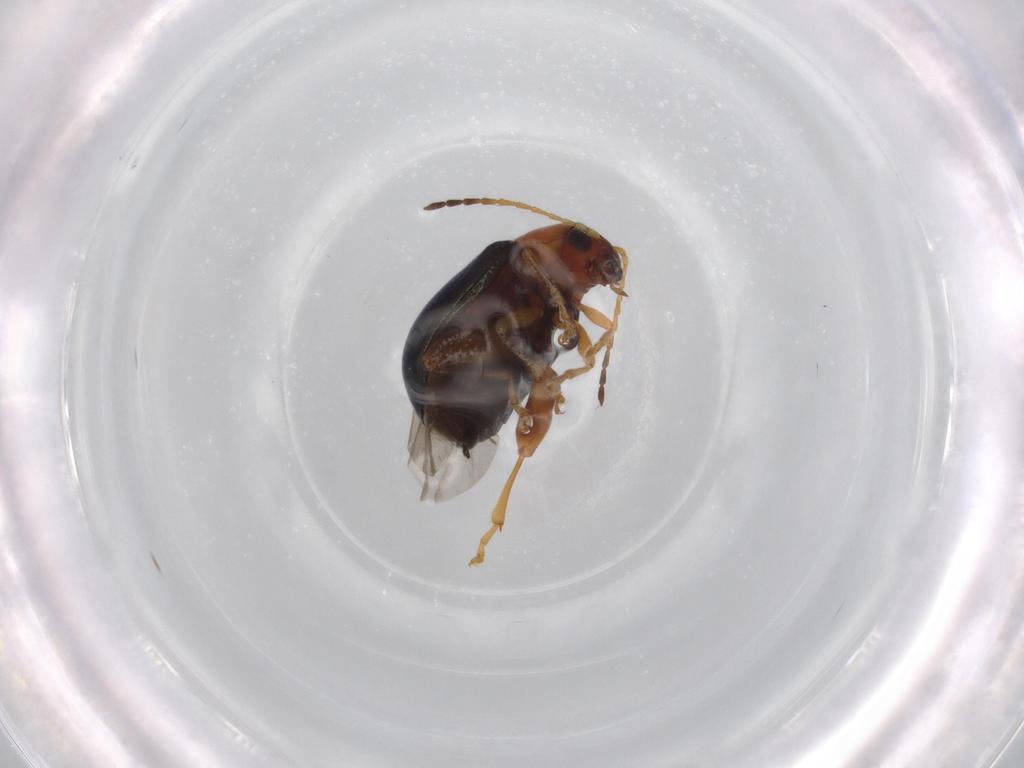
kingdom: Animalia
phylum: Arthropoda
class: Insecta
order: Coleoptera
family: Chrysomelidae
